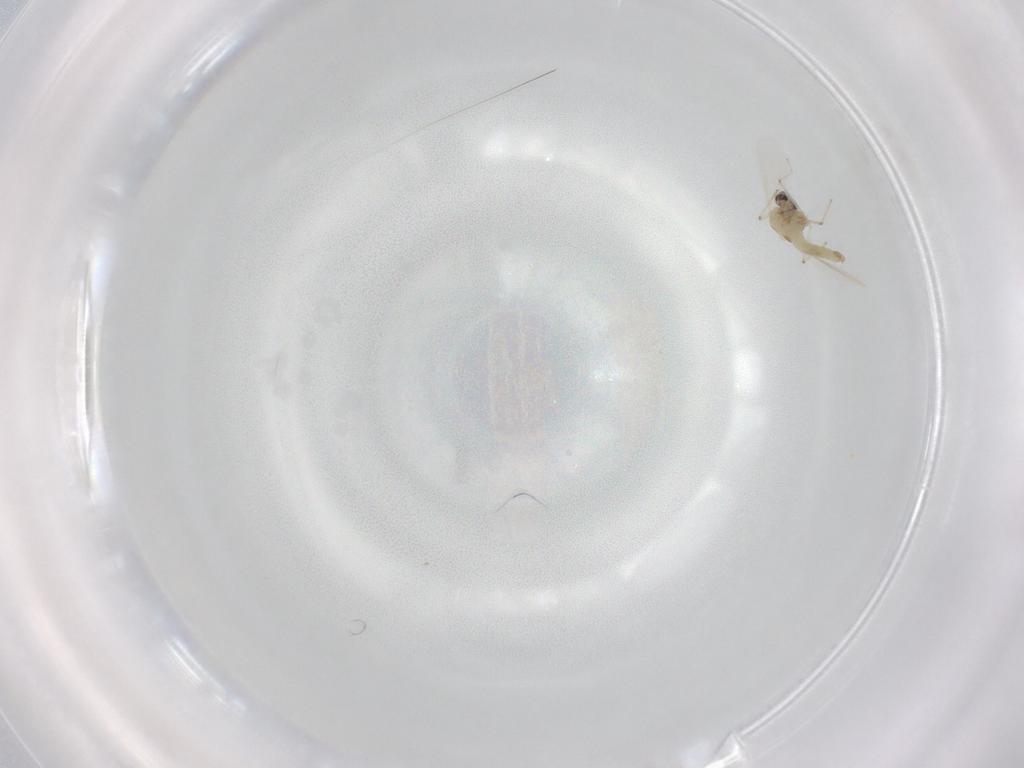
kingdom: Animalia
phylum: Arthropoda
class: Insecta
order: Diptera
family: Chironomidae
